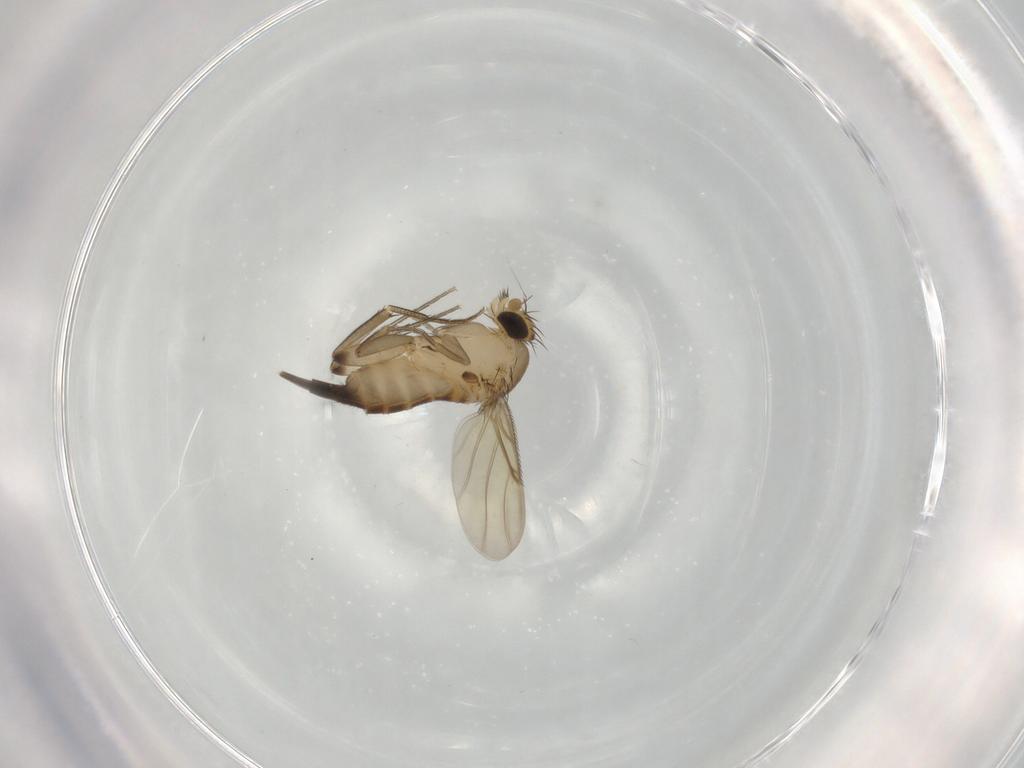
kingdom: Animalia
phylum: Arthropoda
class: Insecta
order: Diptera
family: Phoridae
